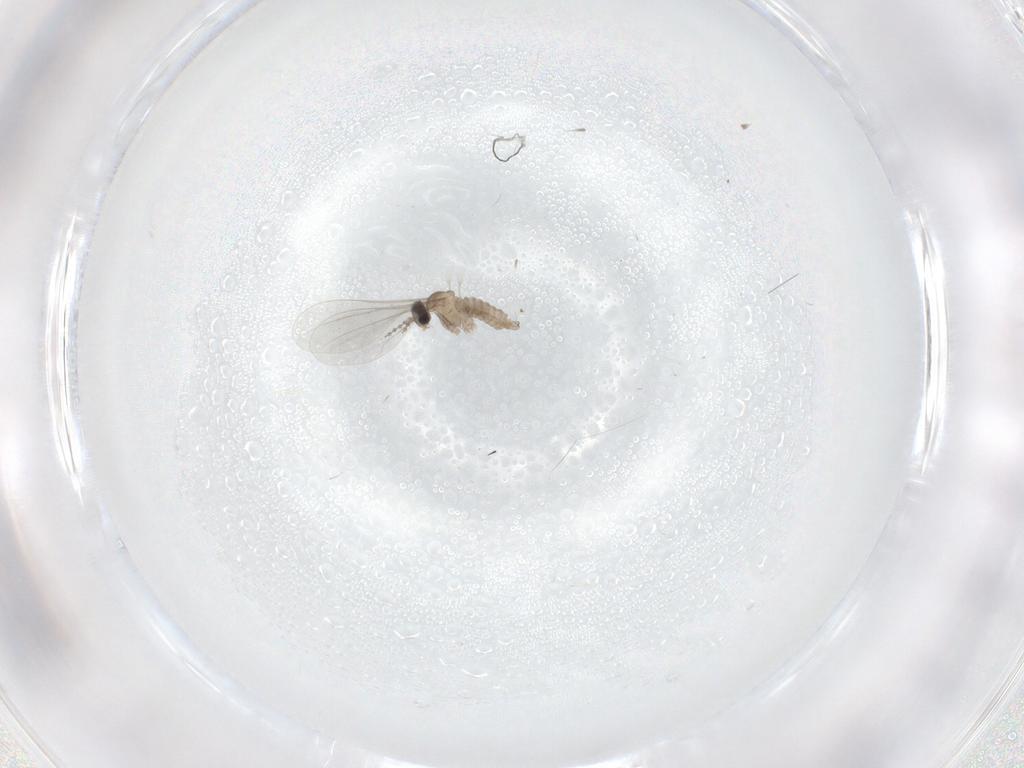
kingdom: Animalia
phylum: Arthropoda
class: Insecta
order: Diptera
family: Cecidomyiidae
